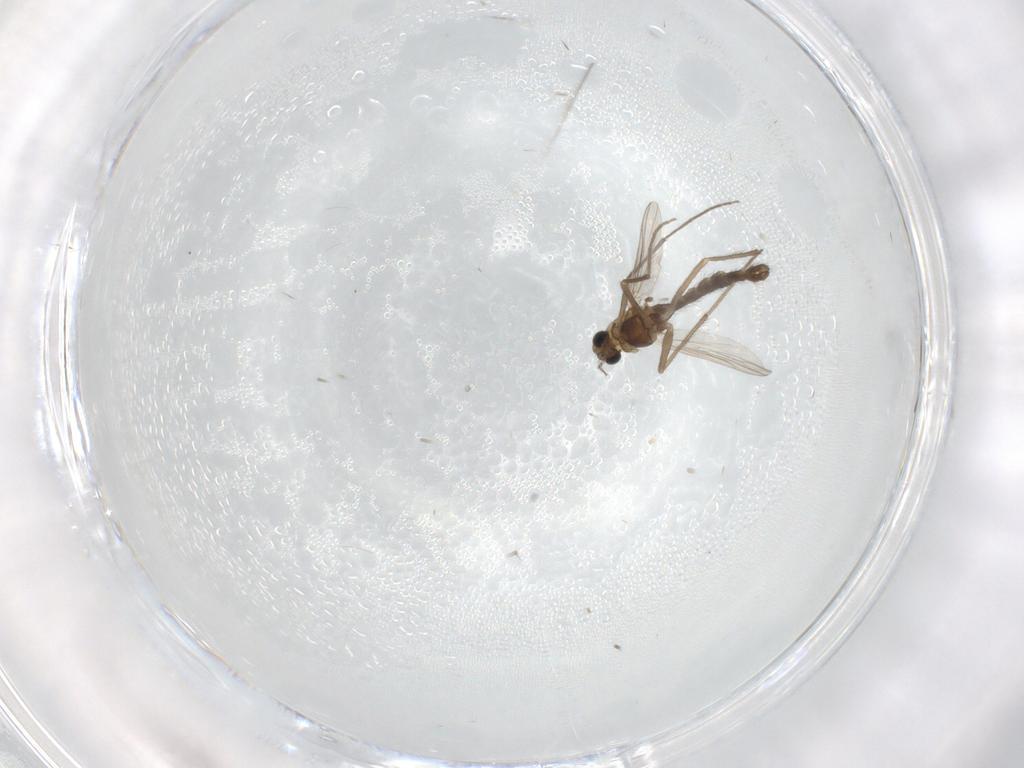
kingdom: Animalia
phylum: Arthropoda
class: Insecta
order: Diptera
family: Chironomidae
